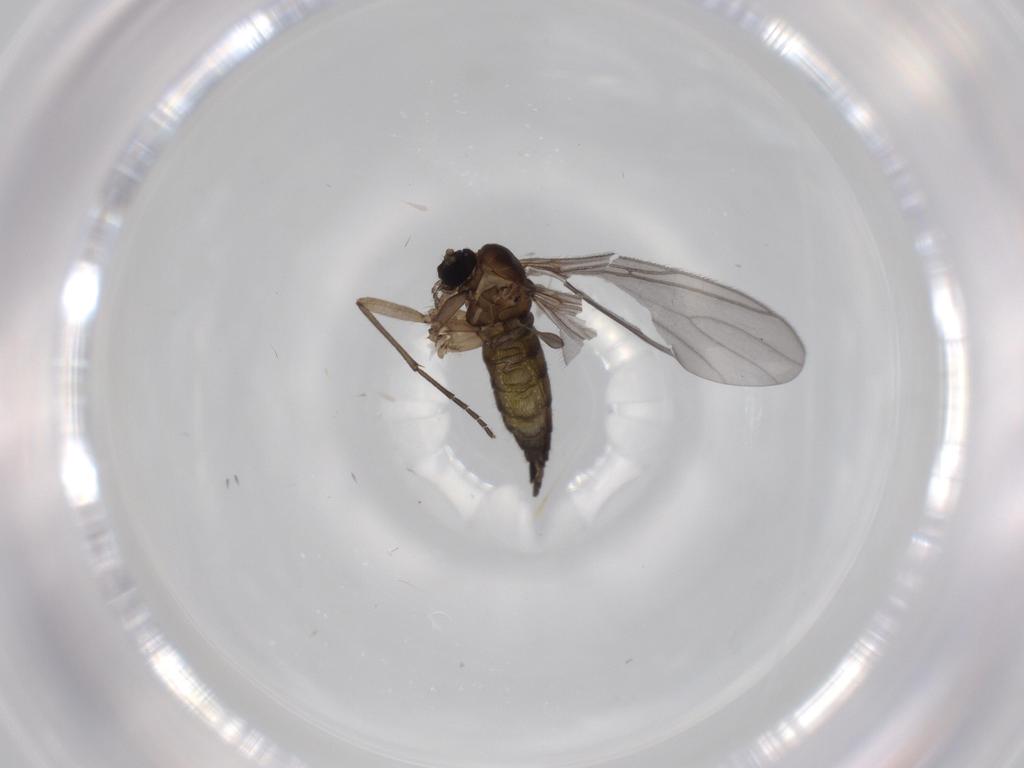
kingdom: Animalia
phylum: Arthropoda
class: Insecta
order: Diptera
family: Sciaridae
